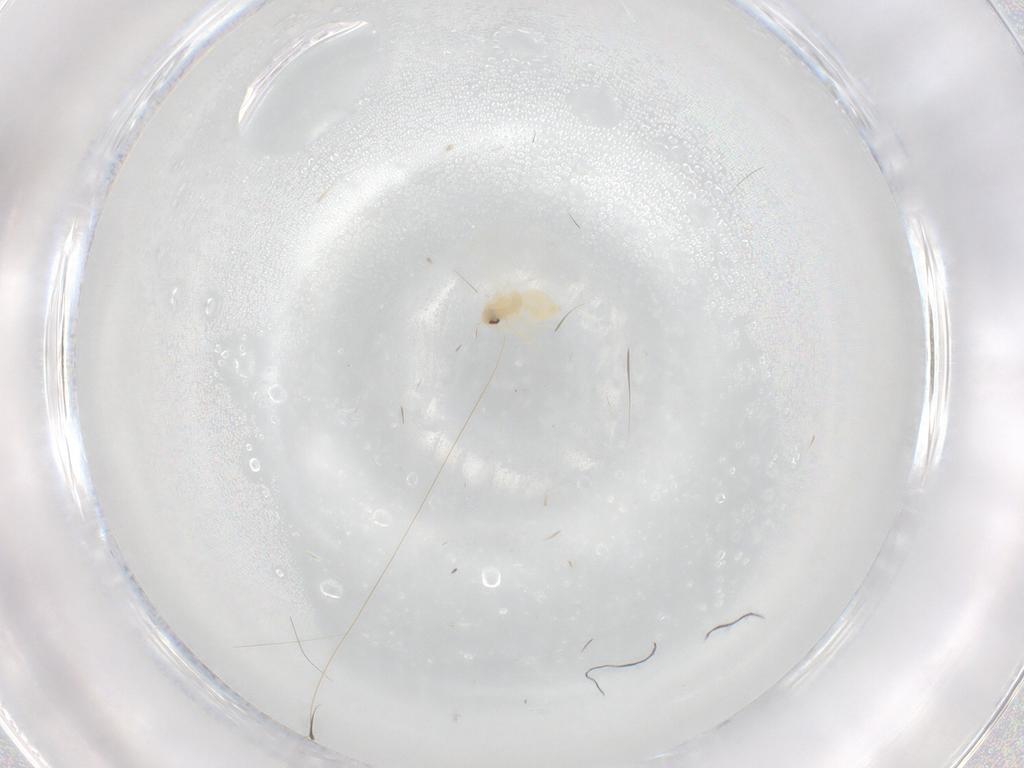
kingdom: Animalia
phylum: Arthropoda
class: Insecta
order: Hemiptera
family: Aleyrodidae
